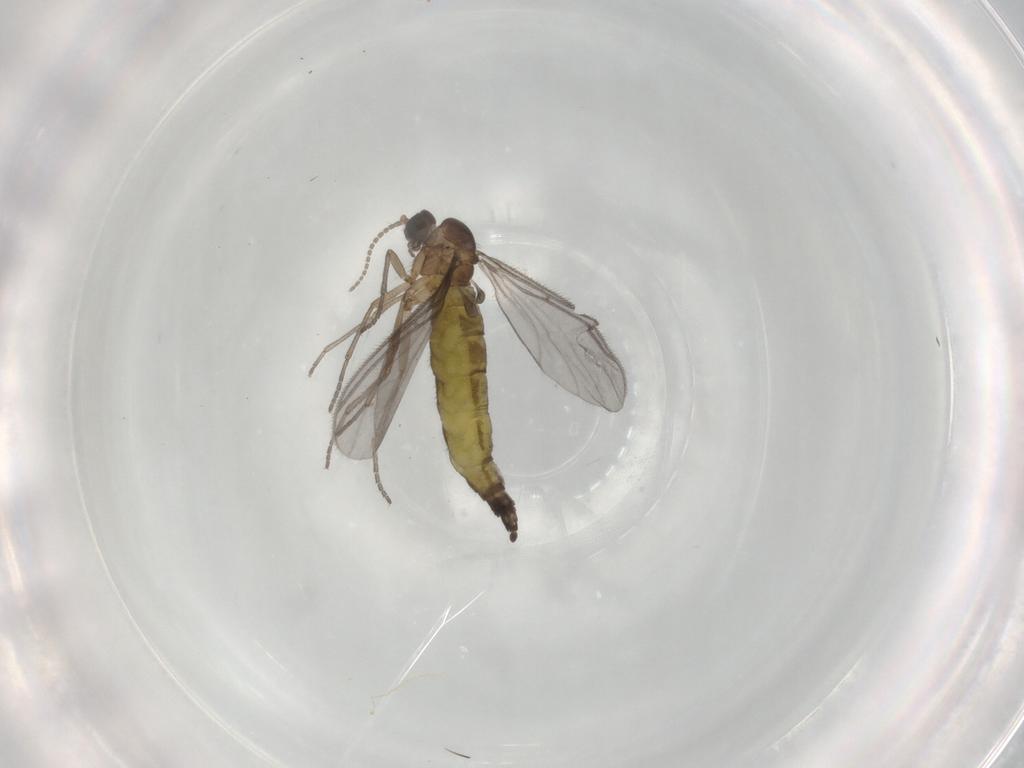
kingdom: Animalia
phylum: Arthropoda
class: Insecta
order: Diptera
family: Sciaridae
